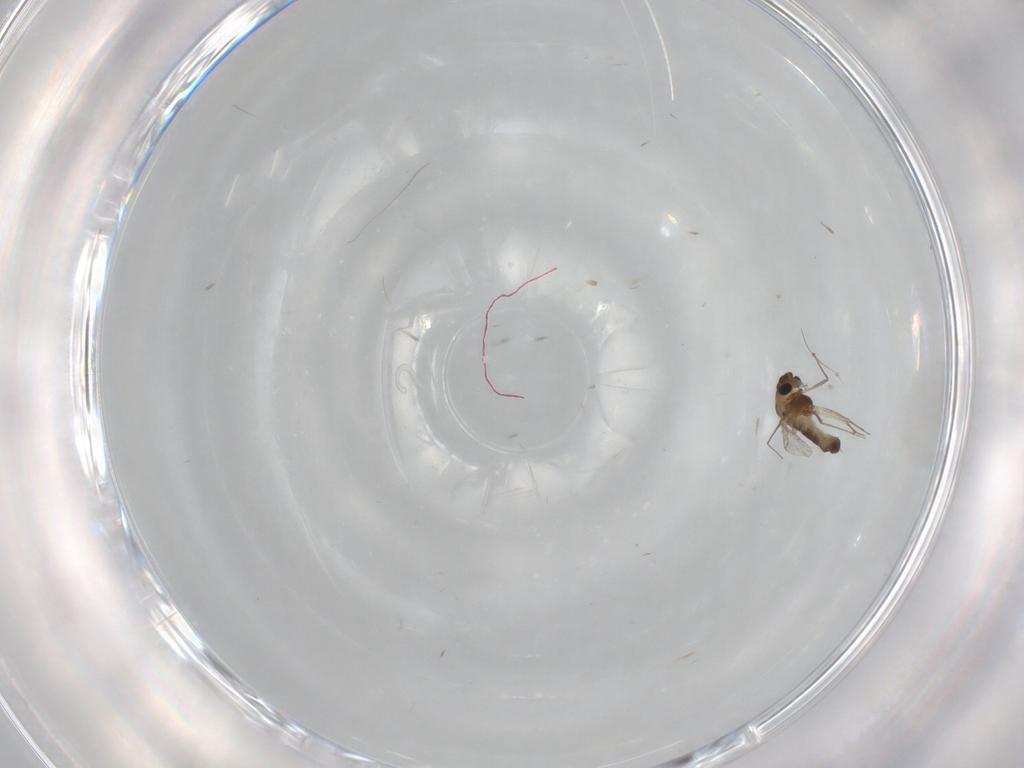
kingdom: Animalia
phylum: Arthropoda
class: Insecta
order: Diptera
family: Chironomidae
